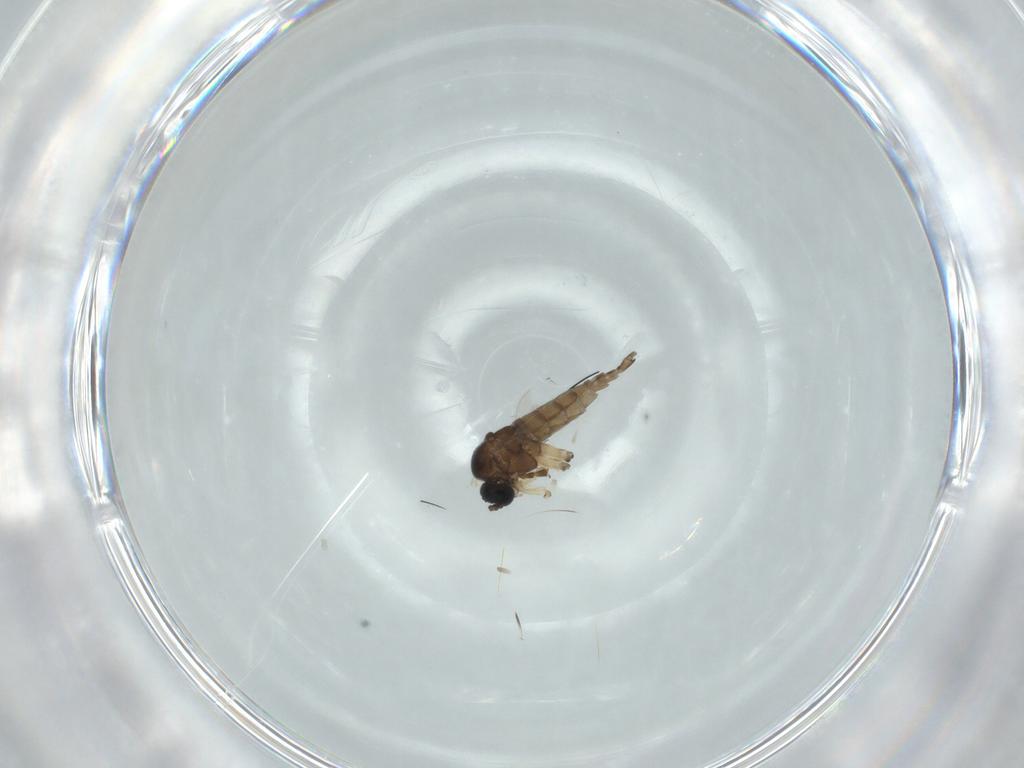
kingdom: Animalia
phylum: Arthropoda
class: Insecta
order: Diptera
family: Sciaridae
